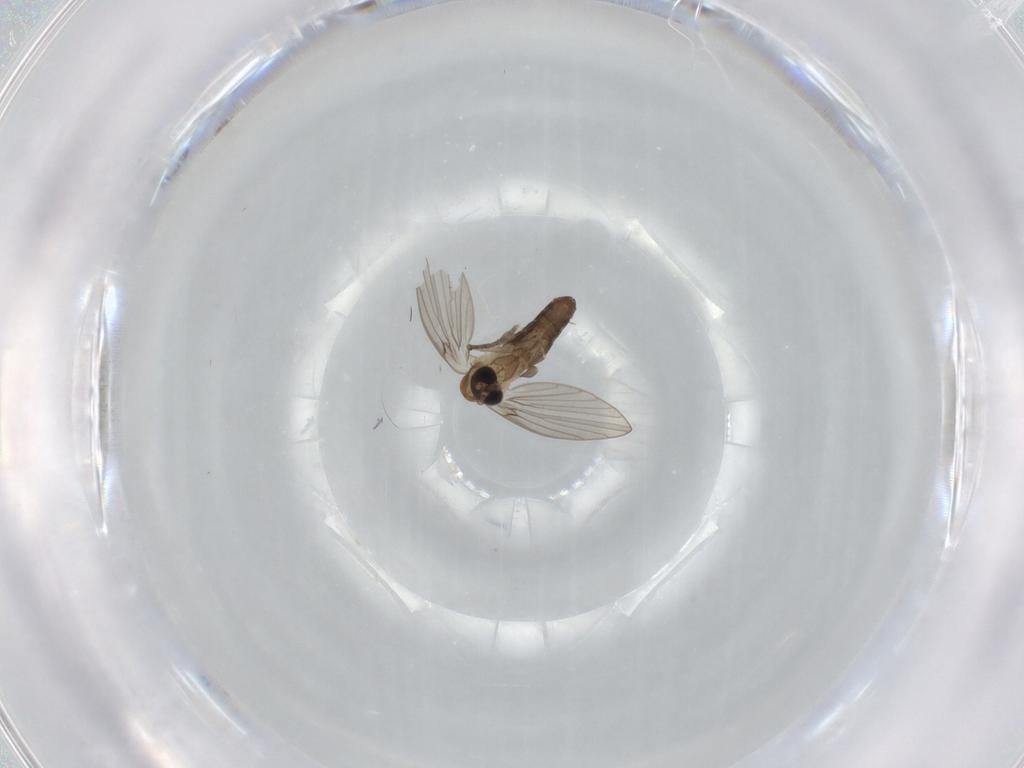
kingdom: Animalia
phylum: Arthropoda
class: Insecta
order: Diptera
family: Psychodidae
